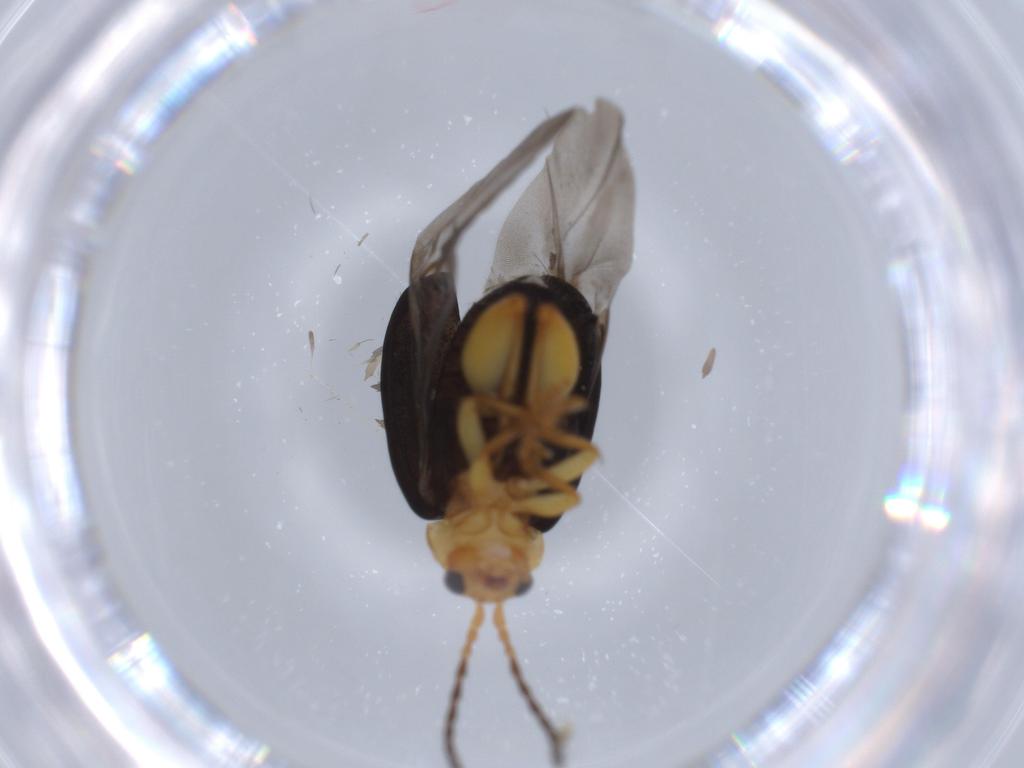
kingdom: Animalia
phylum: Arthropoda
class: Insecta
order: Coleoptera
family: Chrysomelidae
